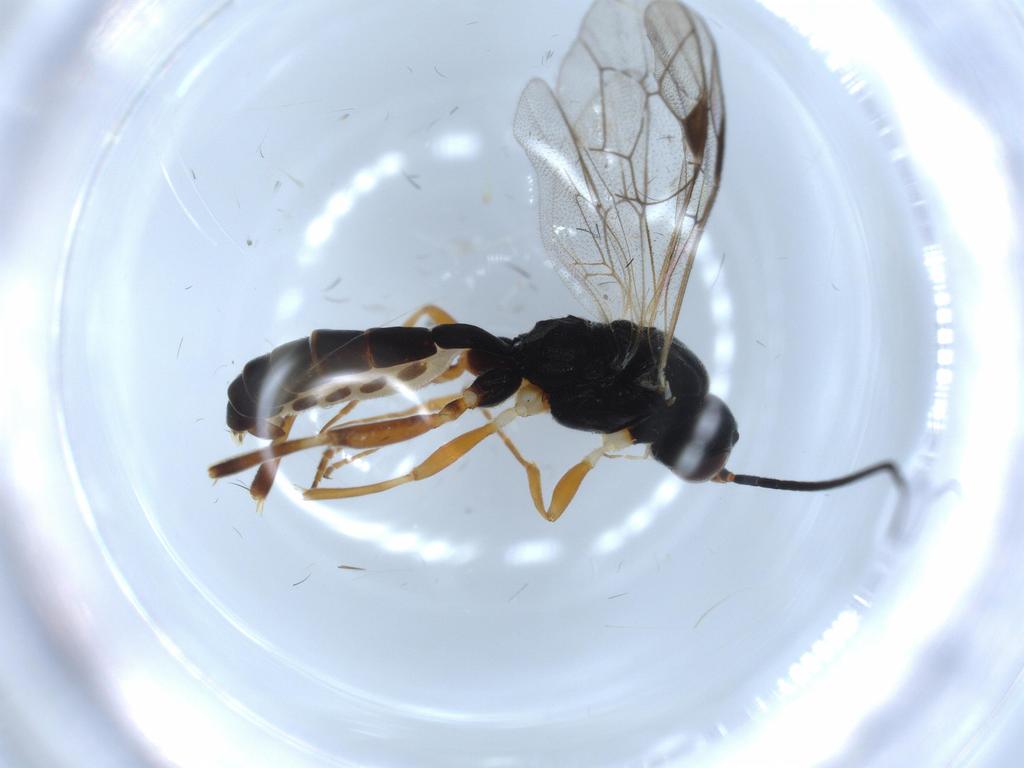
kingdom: Animalia
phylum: Arthropoda
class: Insecta
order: Hymenoptera
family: Ichneumonidae
